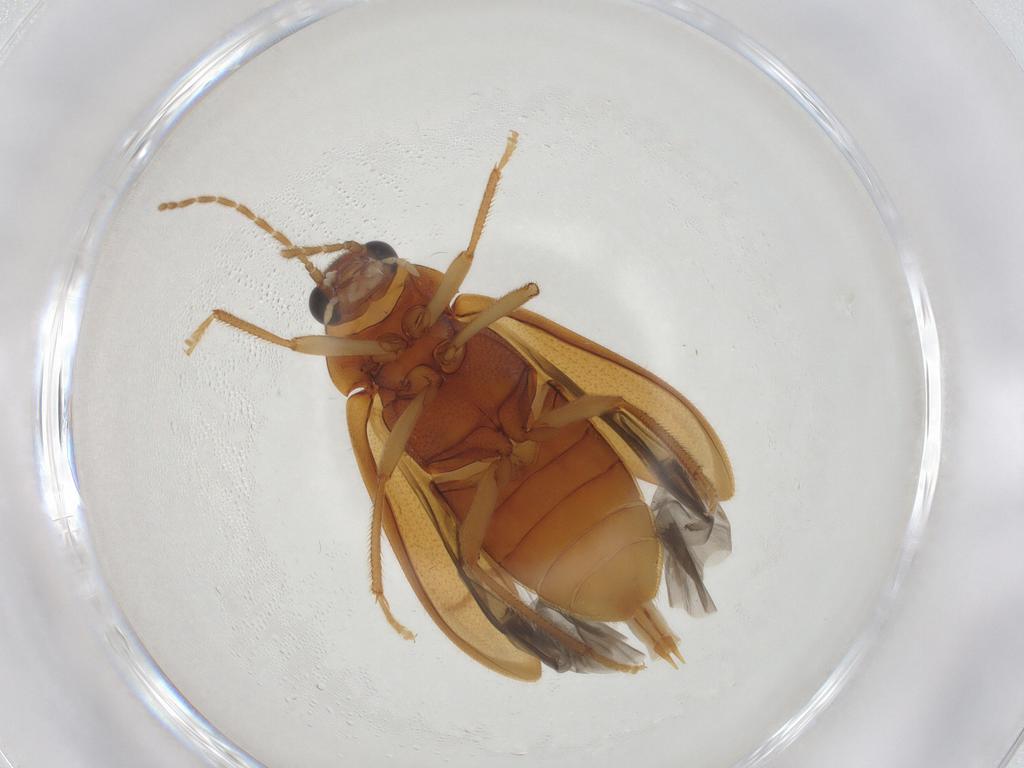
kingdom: Animalia
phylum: Arthropoda
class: Insecta
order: Coleoptera
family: Ptilodactylidae
